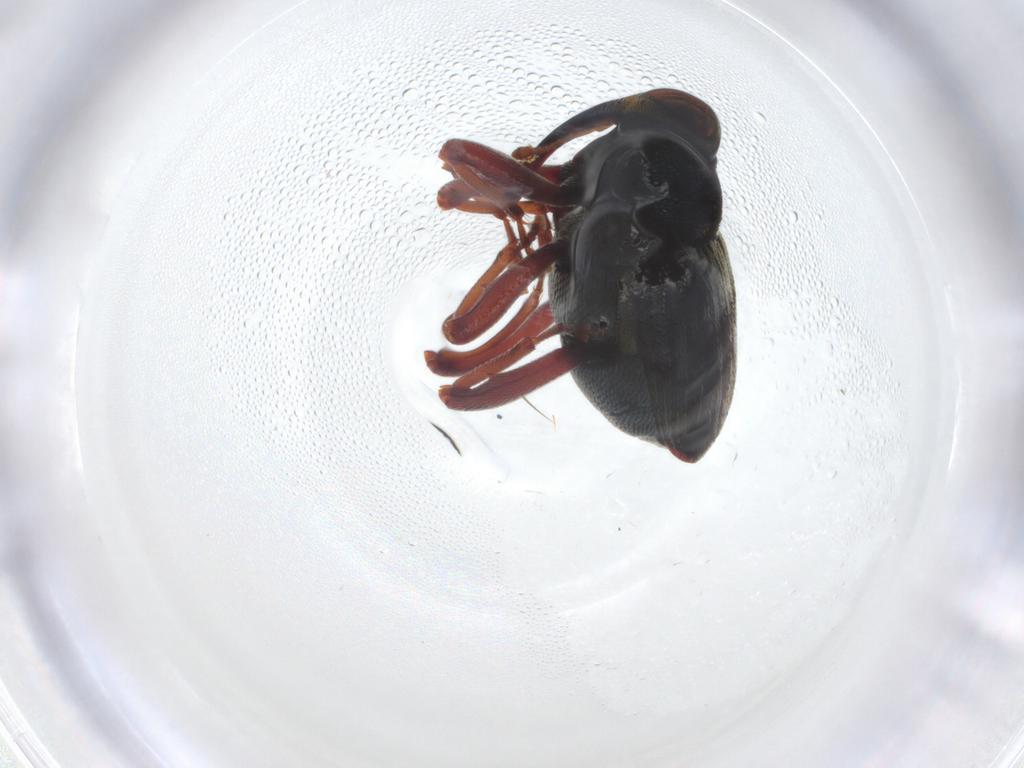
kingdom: Animalia
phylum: Arthropoda
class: Insecta
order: Coleoptera
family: Curculionidae
